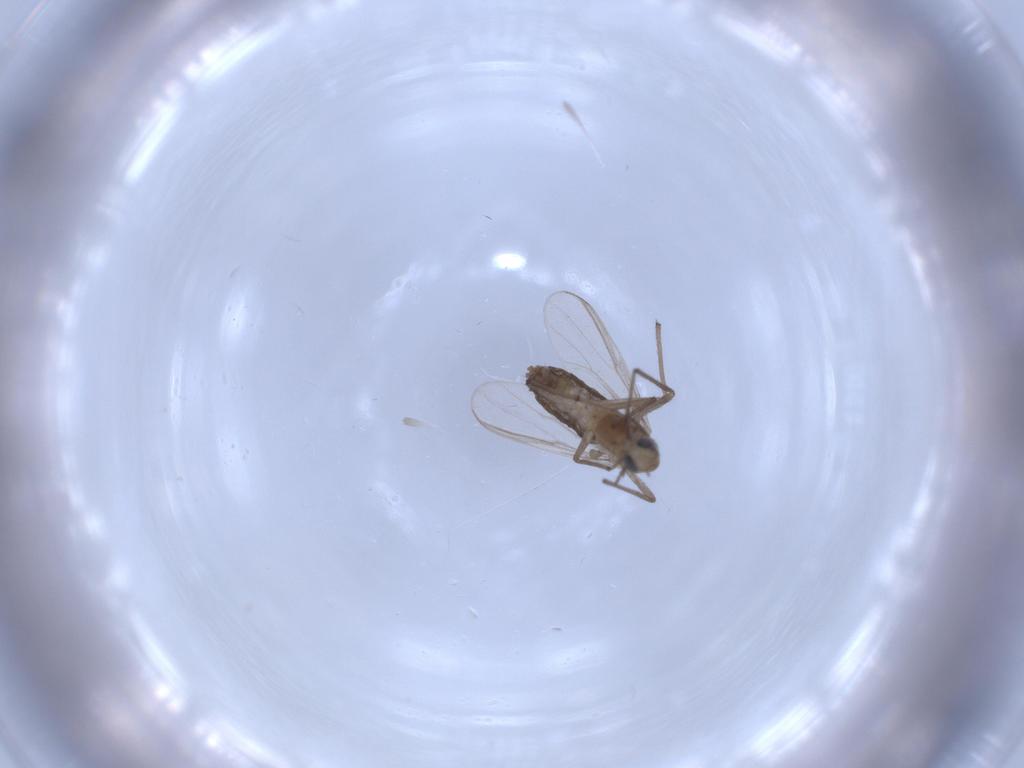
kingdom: Animalia
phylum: Arthropoda
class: Insecta
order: Diptera
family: Chironomidae
